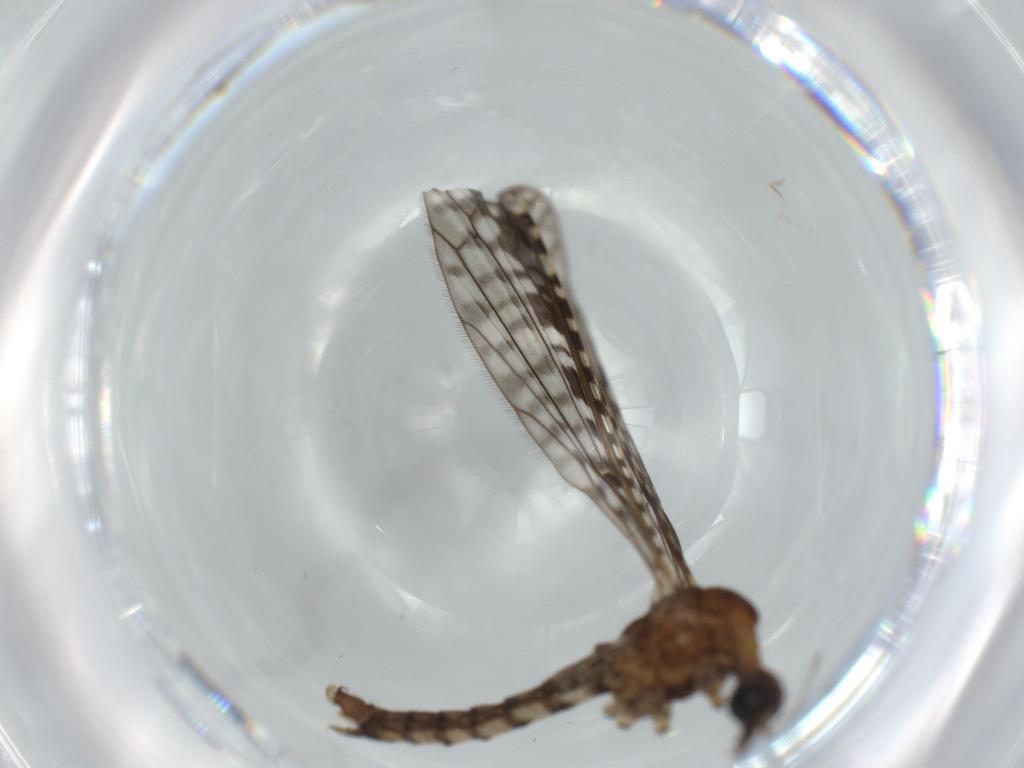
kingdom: Animalia
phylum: Arthropoda
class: Insecta
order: Diptera
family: Limoniidae
